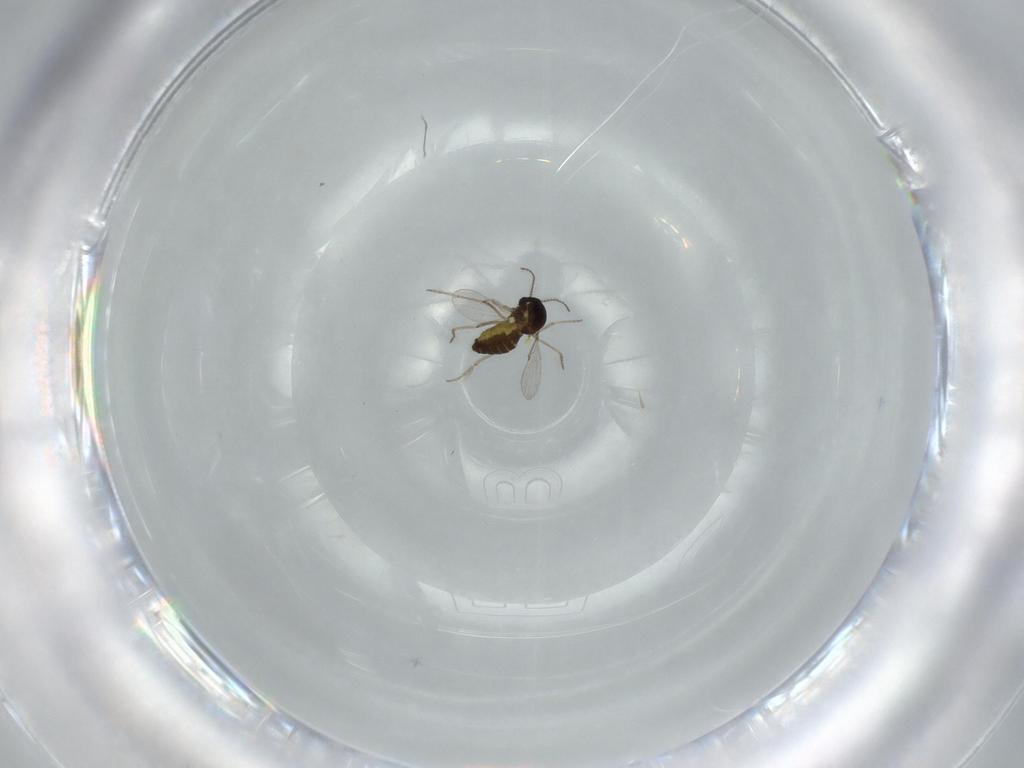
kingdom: Animalia
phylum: Arthropoda
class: Insecta
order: Diptera
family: Ceratopogonidae
